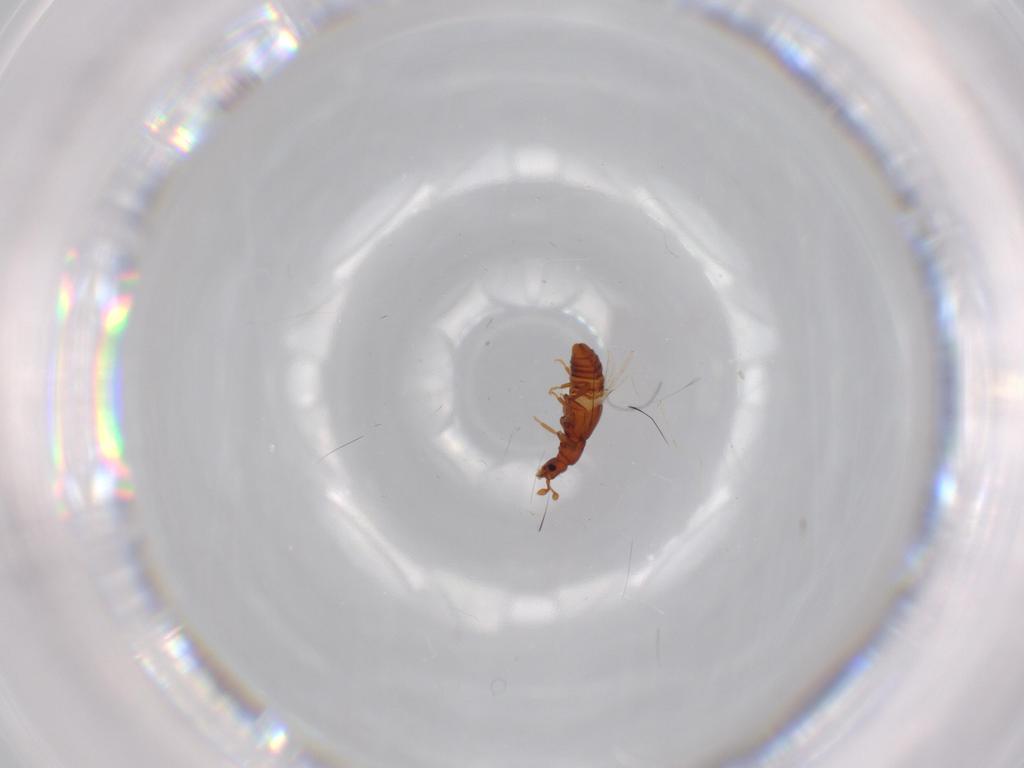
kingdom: Animalia
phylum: Arthropoda
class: Insecta
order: Coleoptera
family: Staphylinidae
